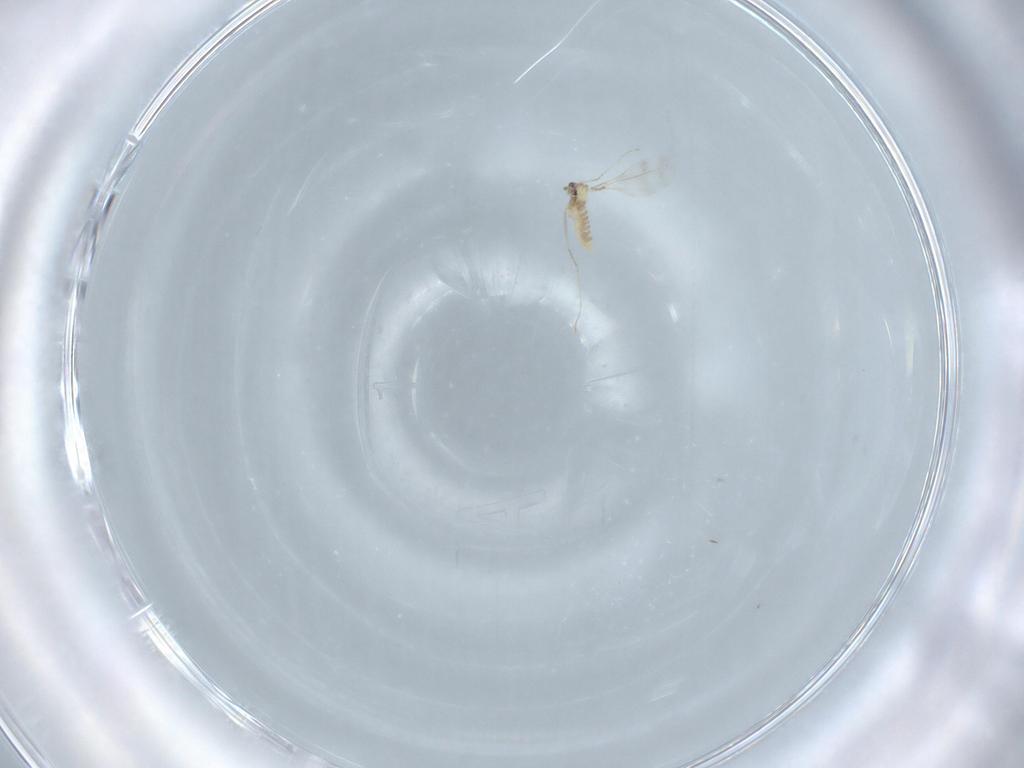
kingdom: Animalia
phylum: Arthropoda
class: Insecta
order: Diptera
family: Cecidomyiidae
